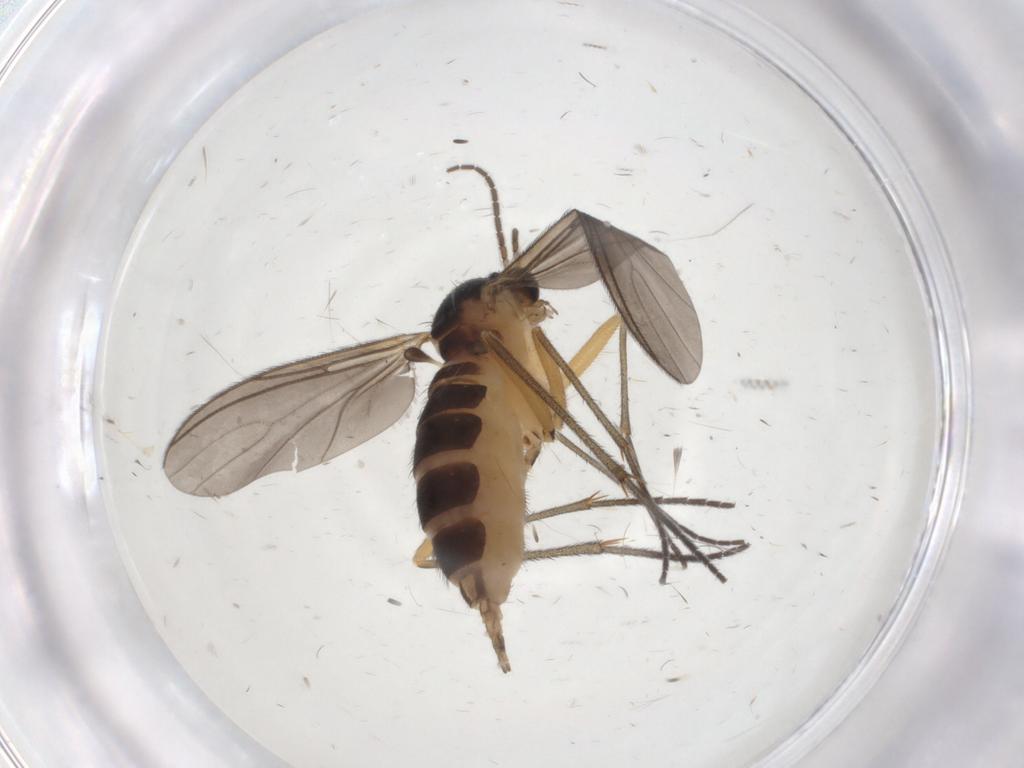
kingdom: Animalia
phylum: Arthropoda
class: Insecta
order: Diptera
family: Sciaridae
